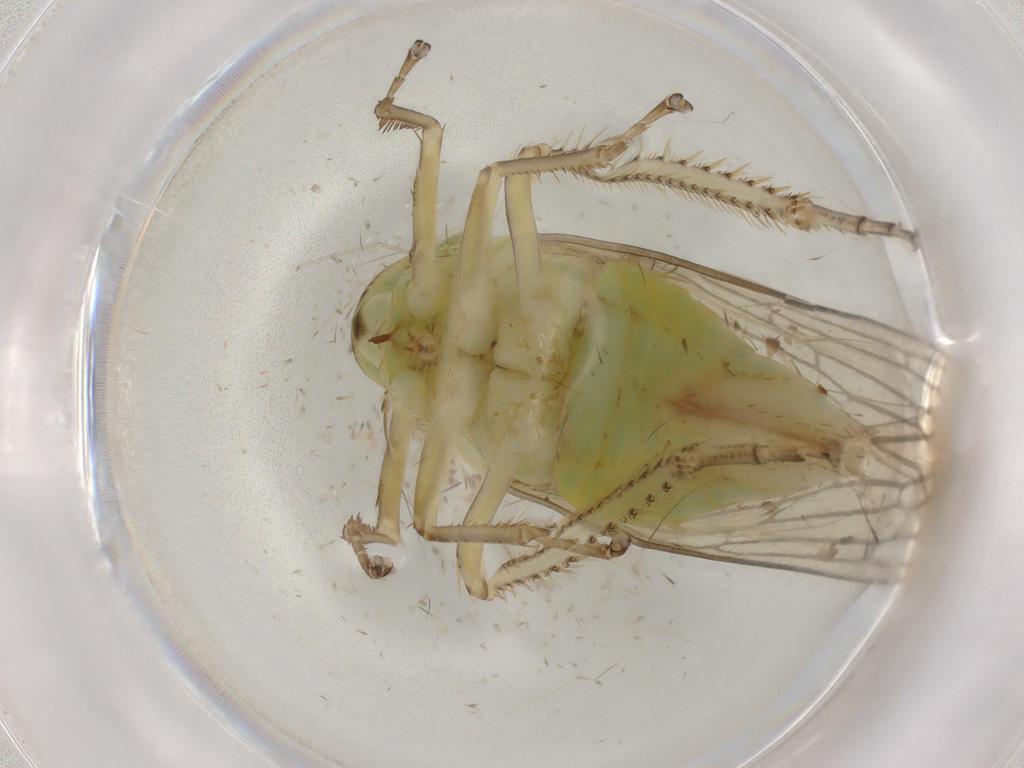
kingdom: Animalia
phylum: Arthropoda
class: Insecta
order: Hemiptera
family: Cicadellidae
